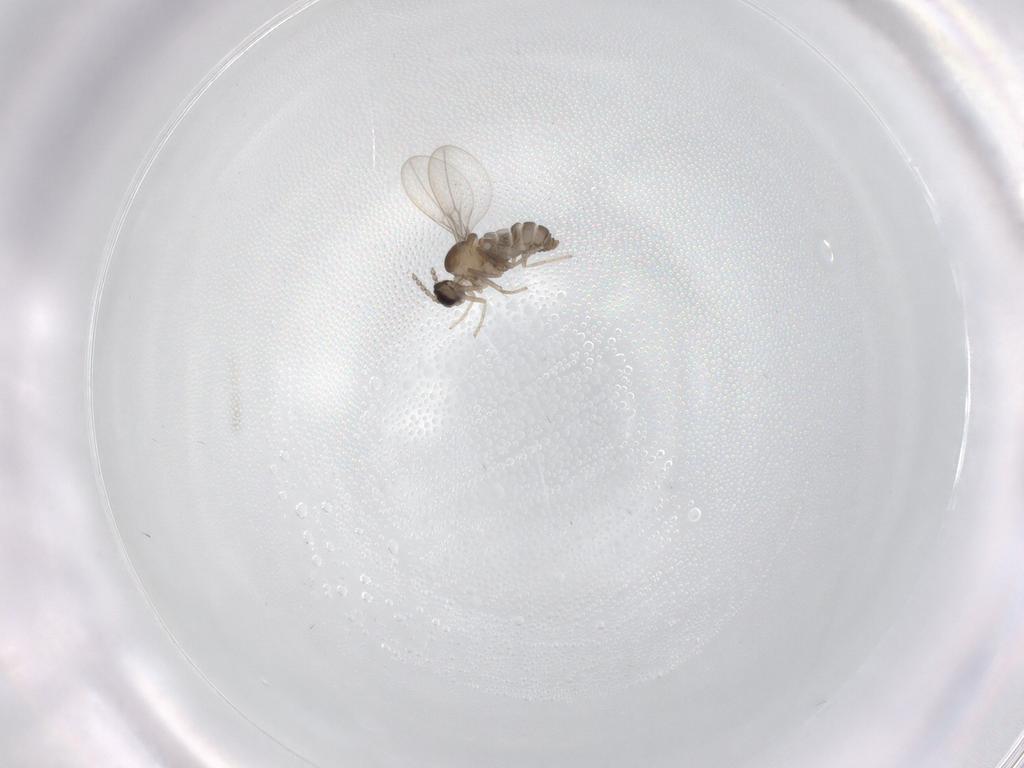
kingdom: Animalia
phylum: Arthropoda
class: Insecta
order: Diptera
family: Cecidomyiidae
